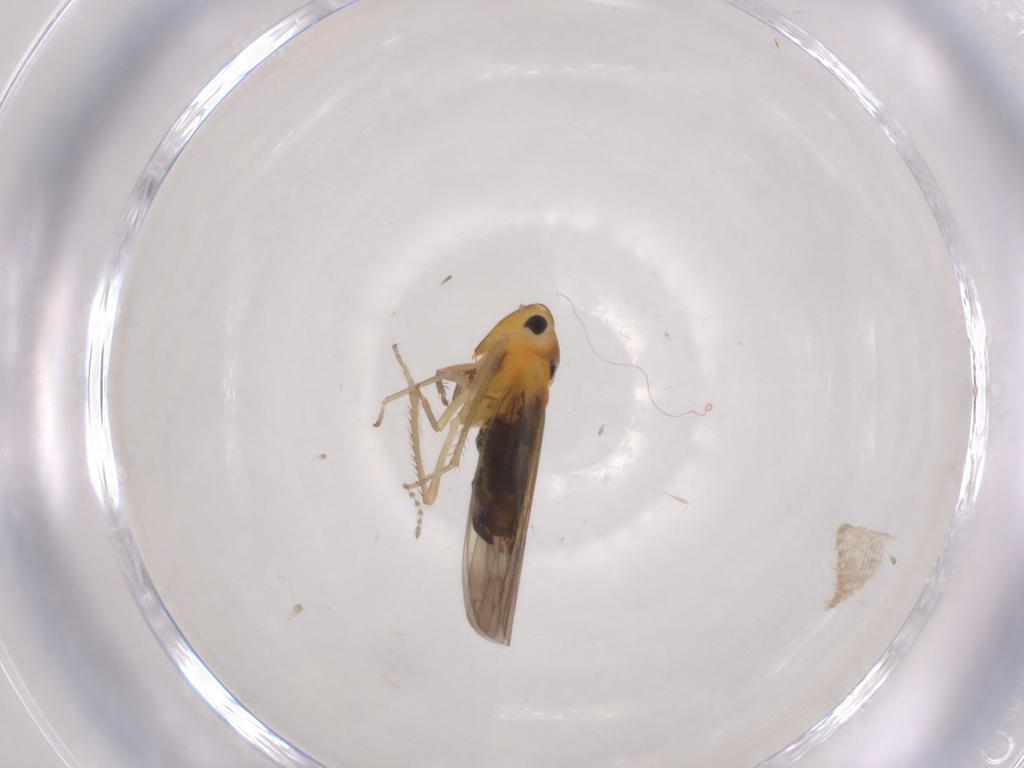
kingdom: Animalia
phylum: Arthropoda
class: Insecta
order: Hemiptera
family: Cicadellidae
